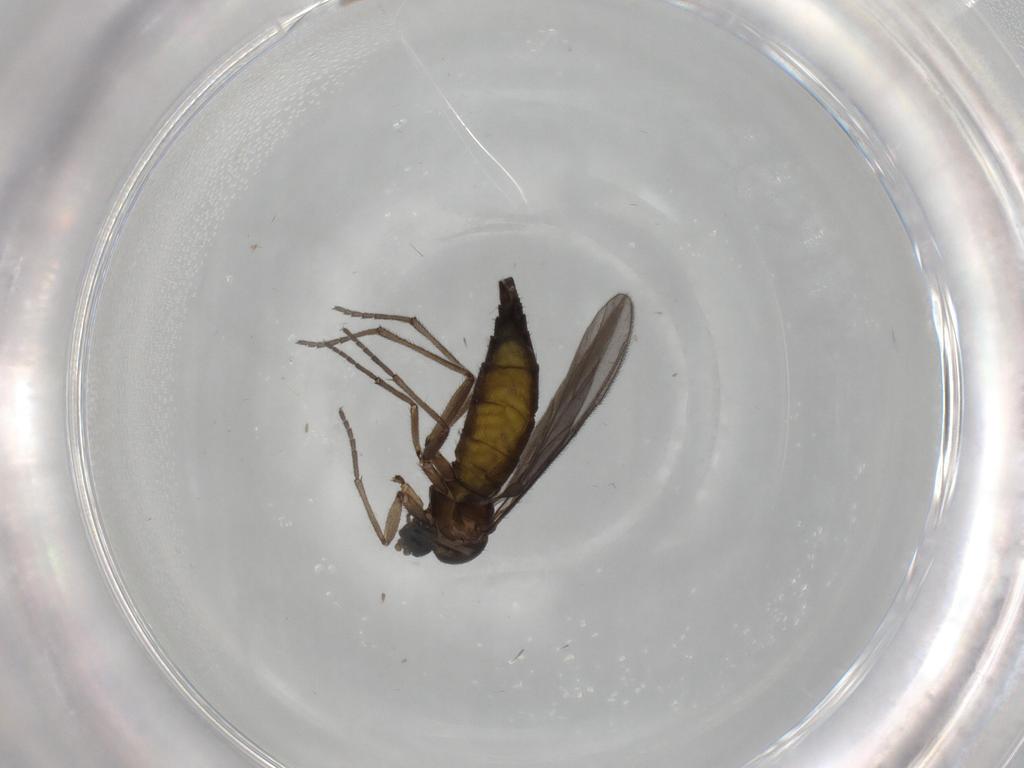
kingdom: Animalia
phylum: Arthropoda
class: Insecta
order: Diptera
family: Sciaridae
